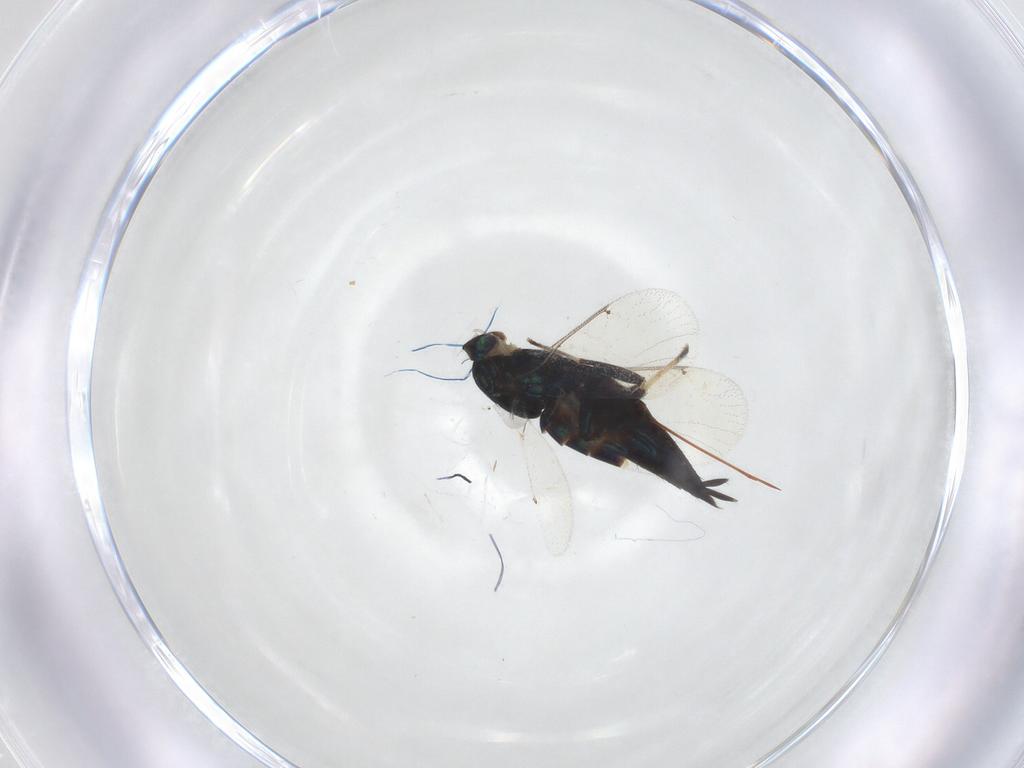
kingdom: Animalia
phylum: Arthropoda
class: Insecta
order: Hymenoptera
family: Eulophidae
